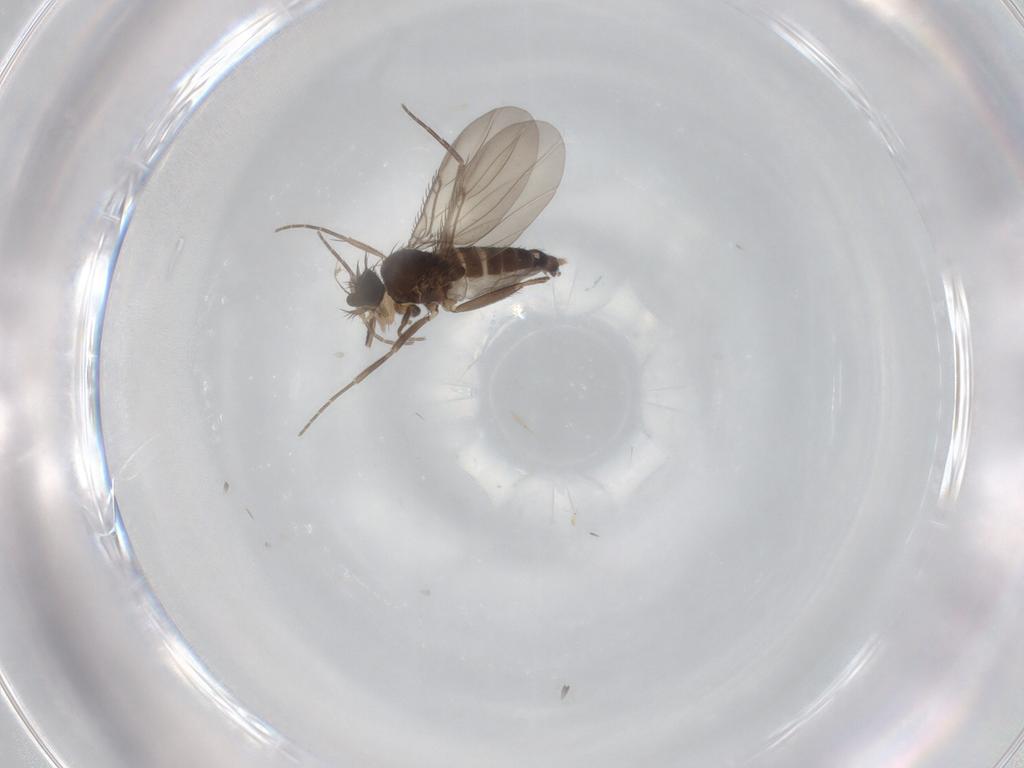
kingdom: Animalia
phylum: Arthropoda
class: Insecta
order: Diptera
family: Phoridae
